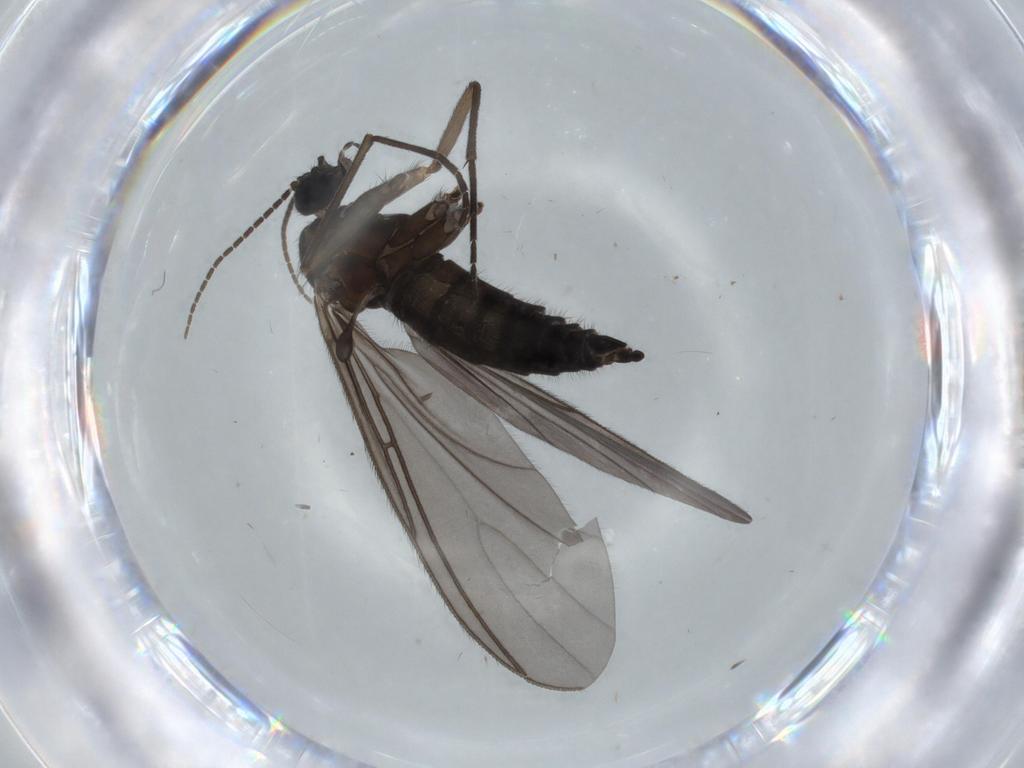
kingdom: Animalia
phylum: Arthropoda
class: Insecta
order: Diptera
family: Sciaridae
